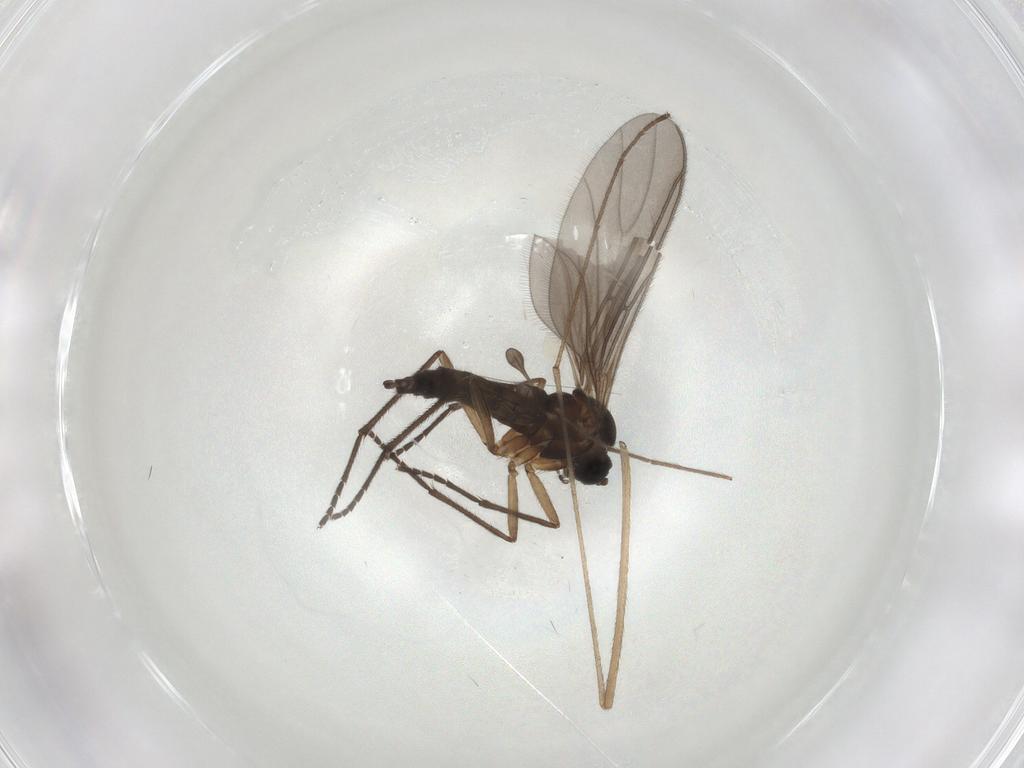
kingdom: Animalia
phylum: Arthropoda
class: Insecta
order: Diptera
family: Sciaridae
